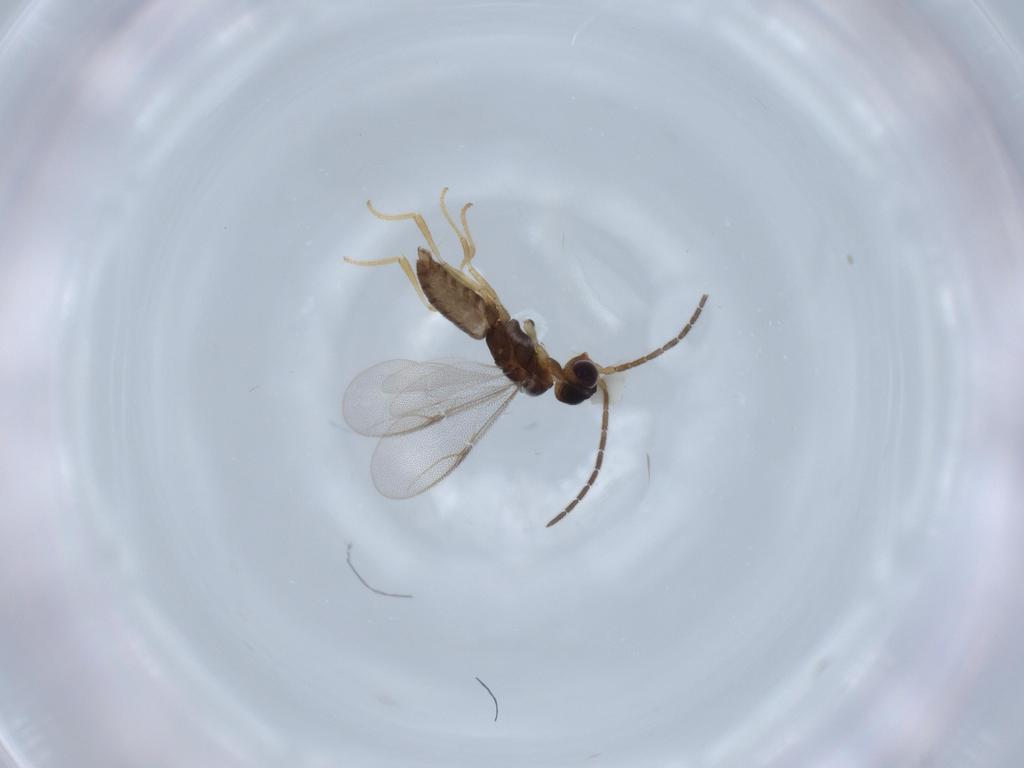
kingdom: Animalia
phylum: Arthropoda
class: Insecta
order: Hymenoptera
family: Dryinidae
